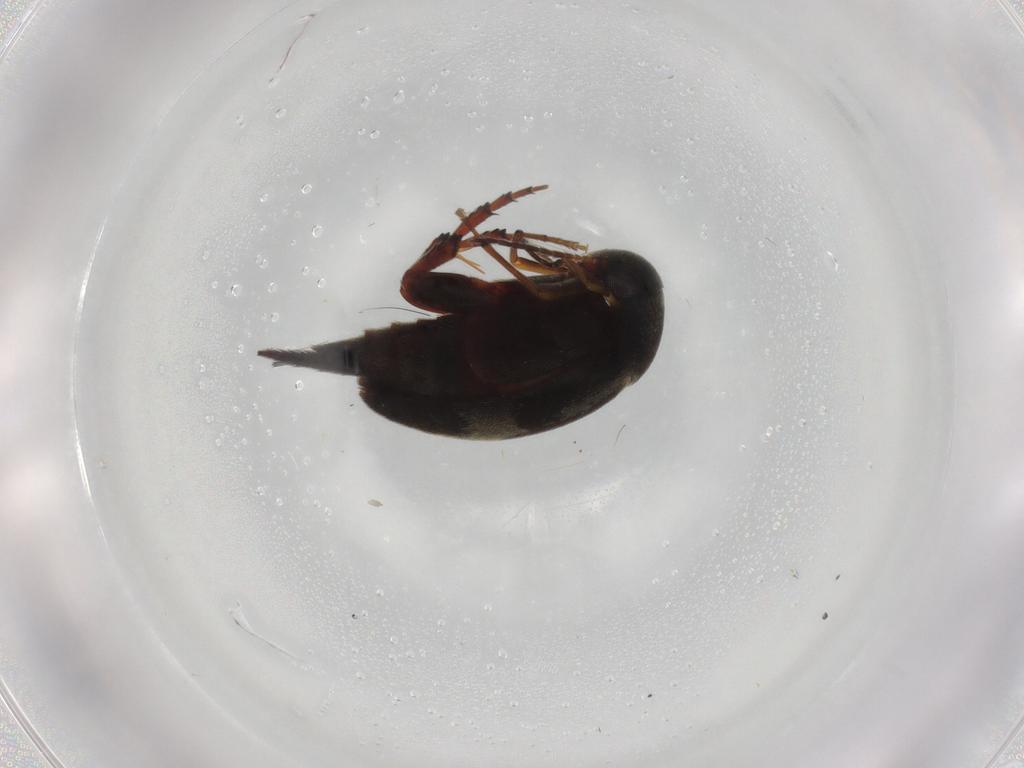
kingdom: Animalia
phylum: Arthropoda
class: Insecta
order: Coleoptera
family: Mordellidae
